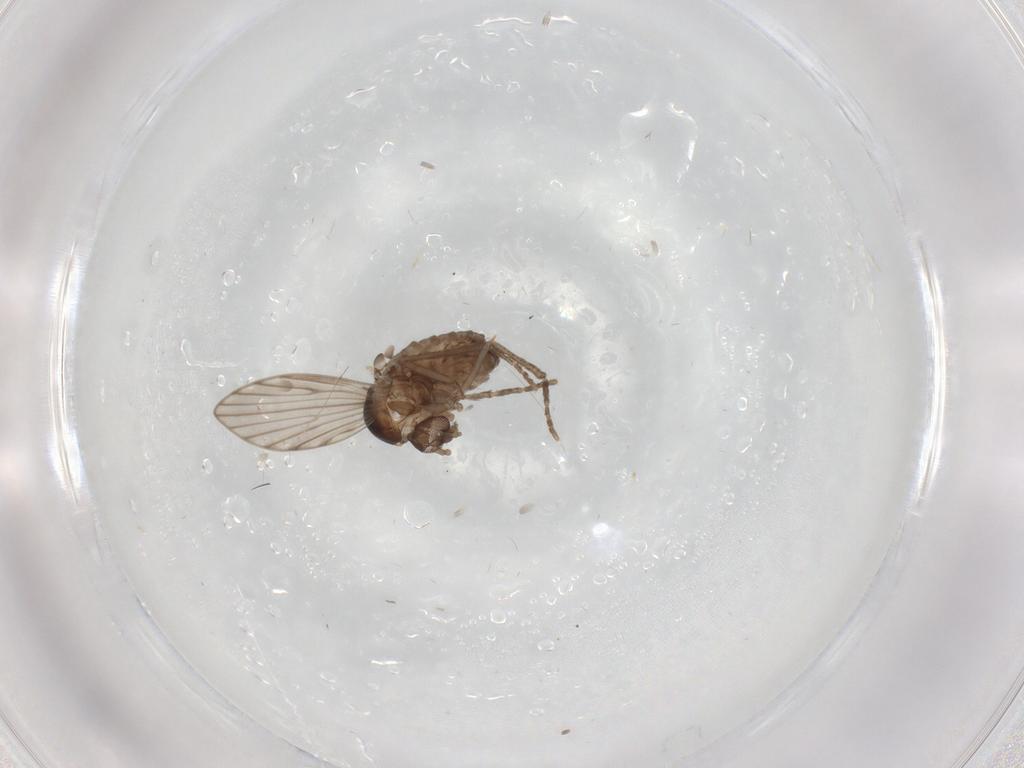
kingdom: Animalia
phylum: Arthropoda
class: Insecta
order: Diptera
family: Psychodidae
